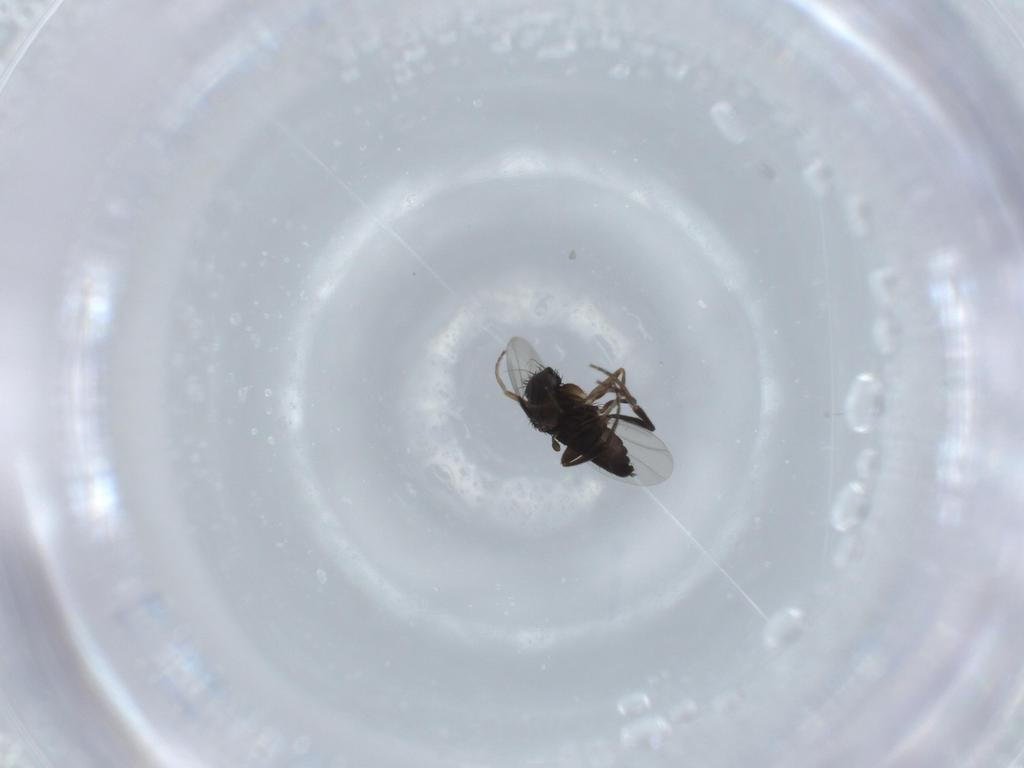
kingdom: Animalia
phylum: Arthropoda
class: Insecta
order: Diptera
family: Phoridae
